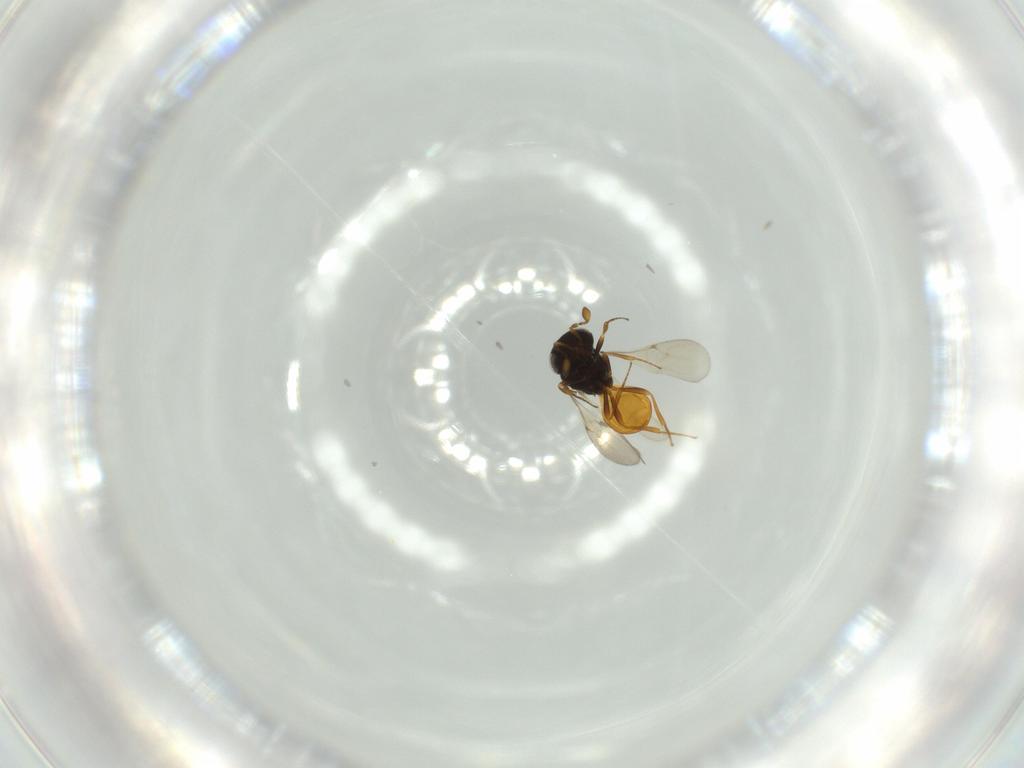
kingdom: Animalia
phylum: Arthropoda
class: Insecta
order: Hymenoptera
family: Scelionidae
